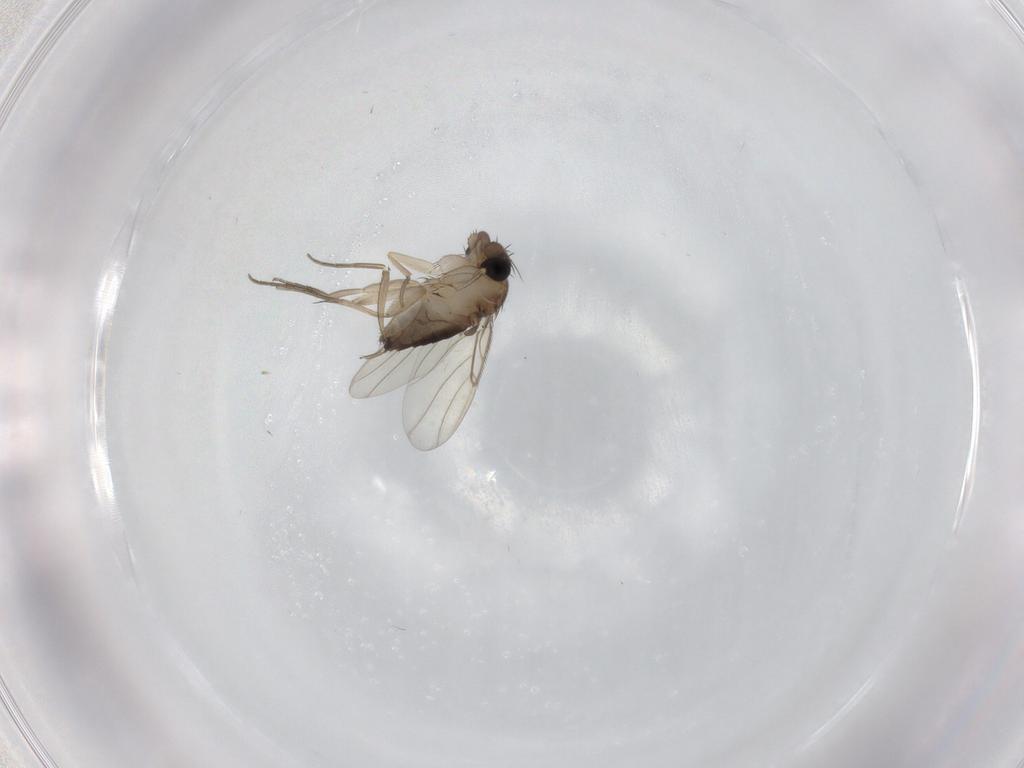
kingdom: Animalia
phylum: Arthropoda
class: Insecta
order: Diptera
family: Phoridae
